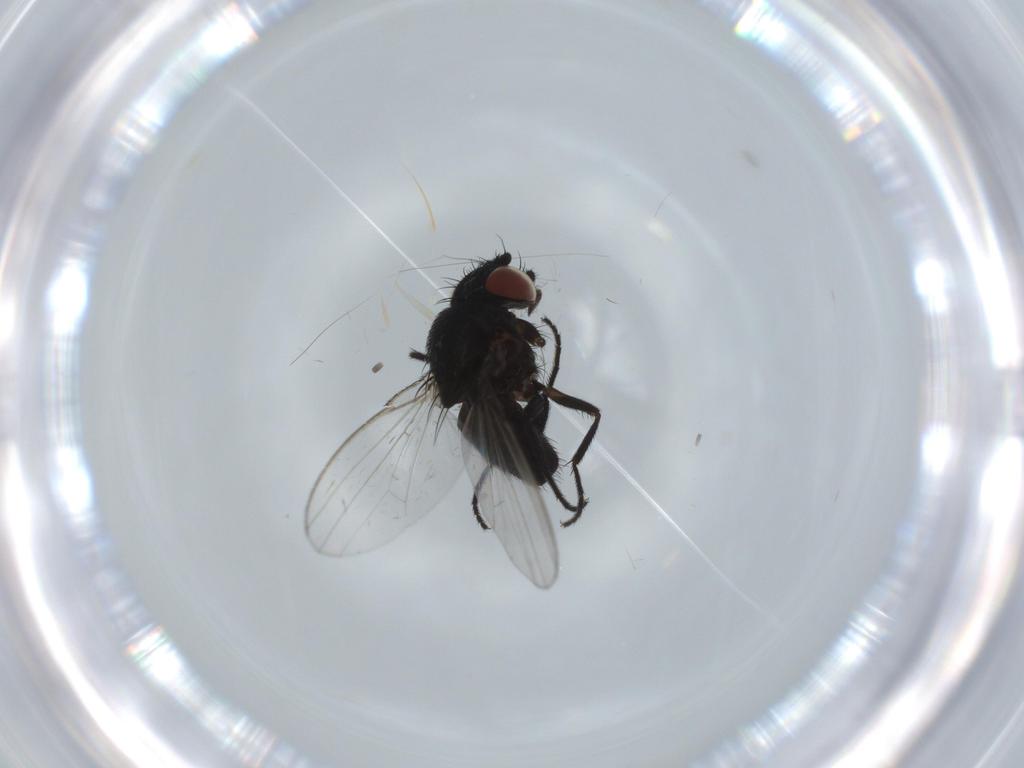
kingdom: Animalia
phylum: Arthropoda
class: Insecta
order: Diptera
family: Milichiidae
